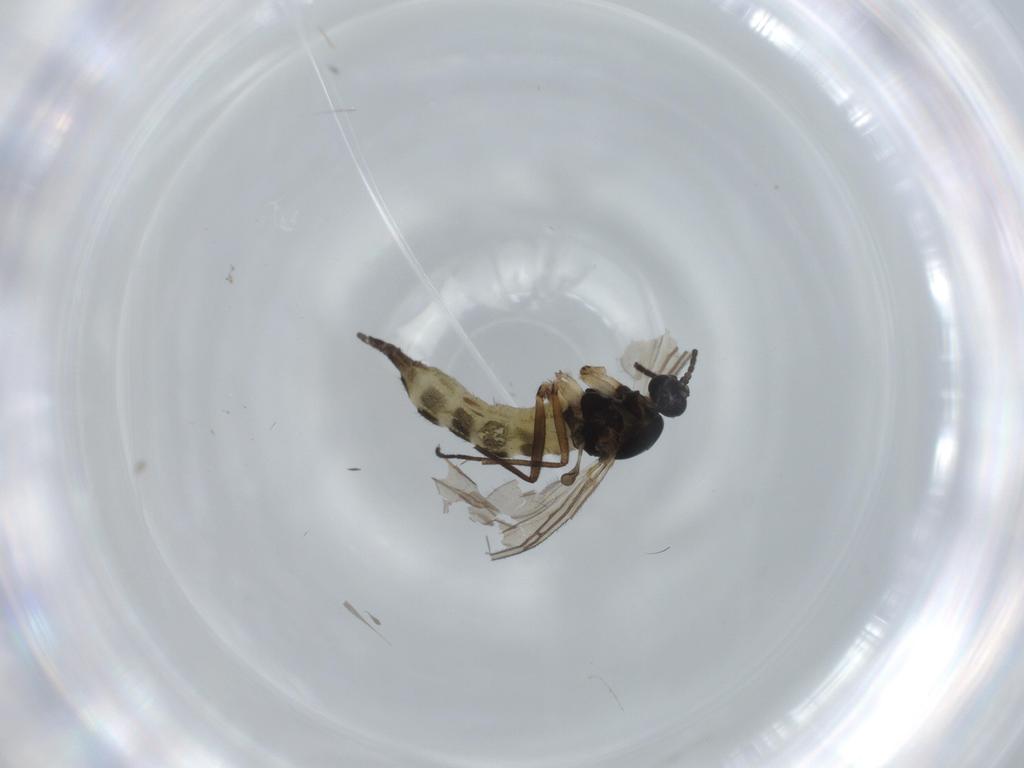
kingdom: Animalia
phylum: Arthropoda
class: Insecta
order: Diptera
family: Sciaridae
